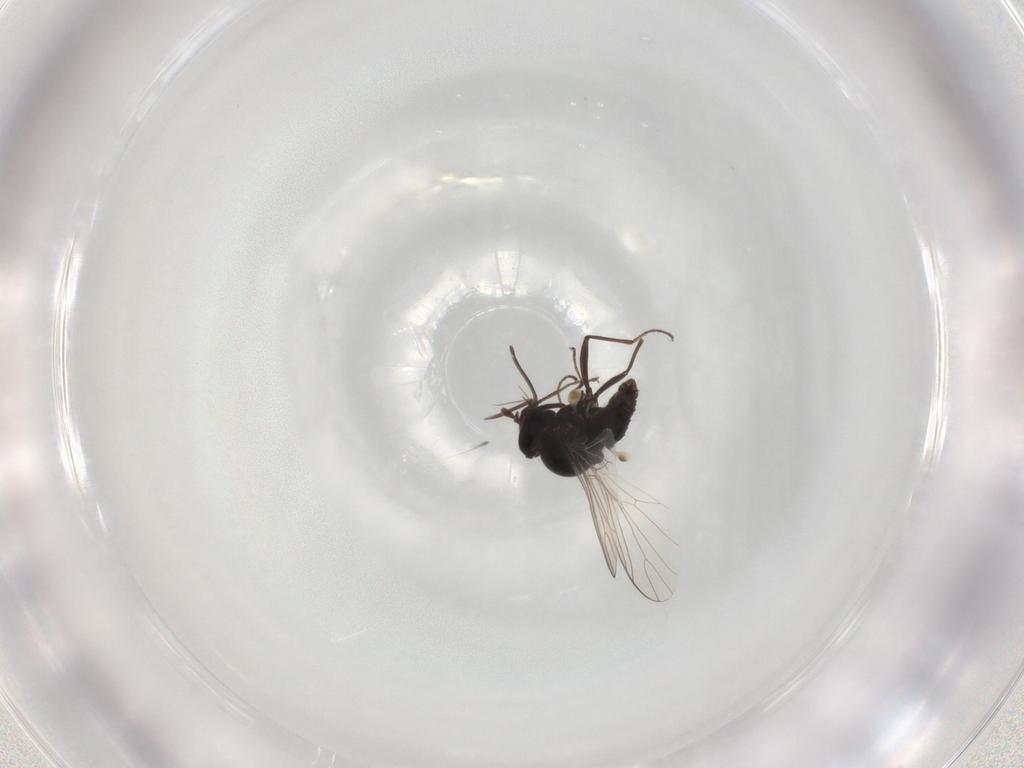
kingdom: Animalia
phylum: Arthropoda
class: Insecta
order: Diptera
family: Bombyliidae
